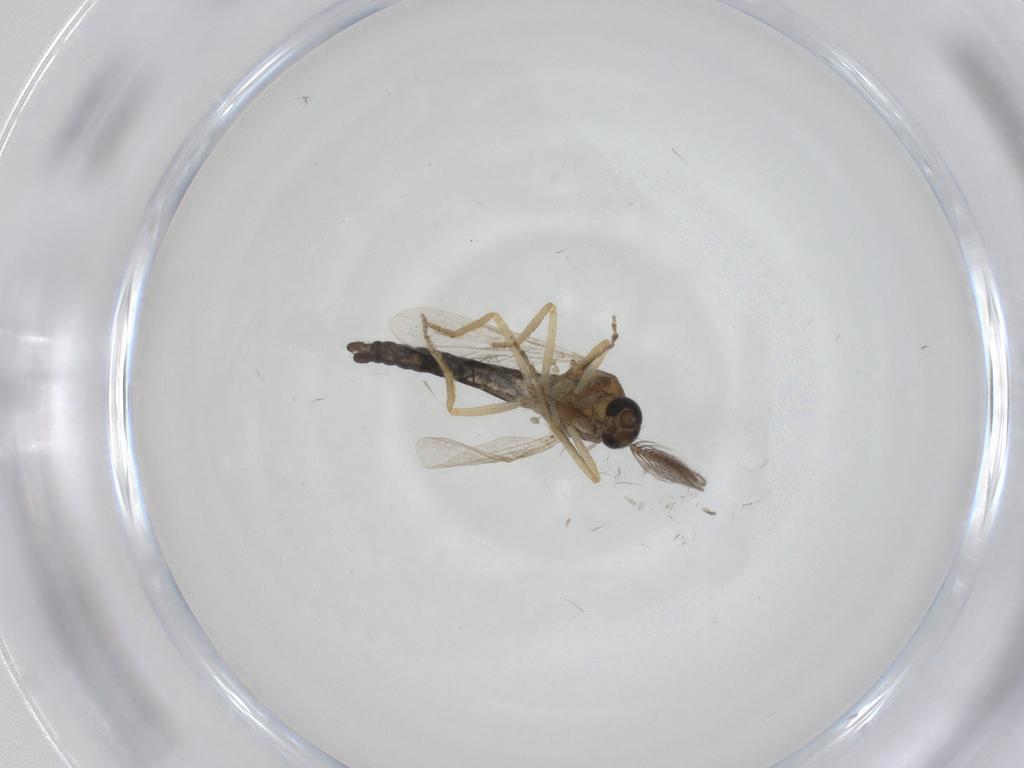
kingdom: Animalia
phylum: Arthropoda
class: Insecta
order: Diptera
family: Ceratopogonidae
